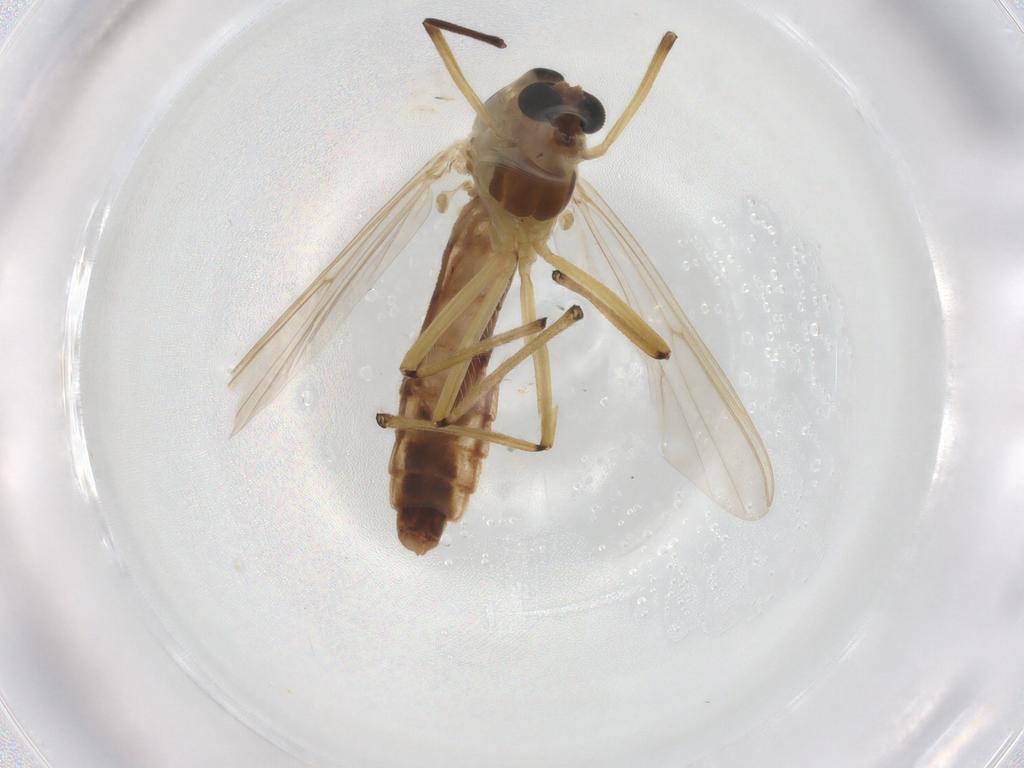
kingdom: Animalia
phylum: Arthropoda
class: Insecta
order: Diptera
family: Chironomidae
